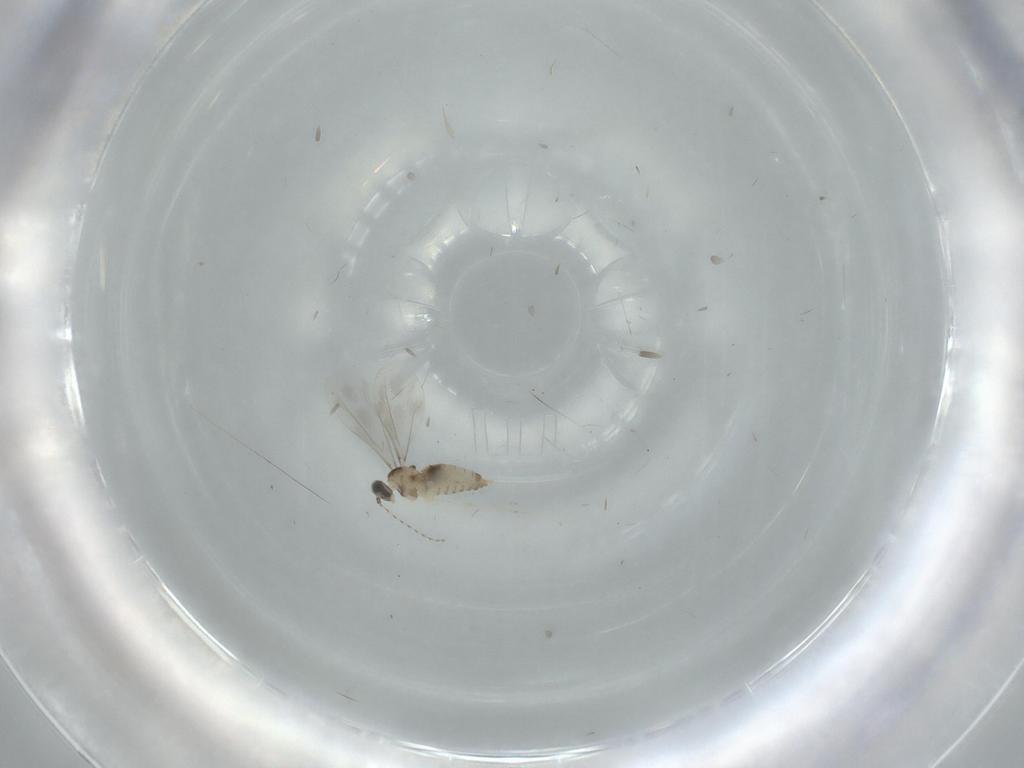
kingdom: Animalia
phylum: Arthropoda
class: Insecta
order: Diptera
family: Cecidomyiidae
